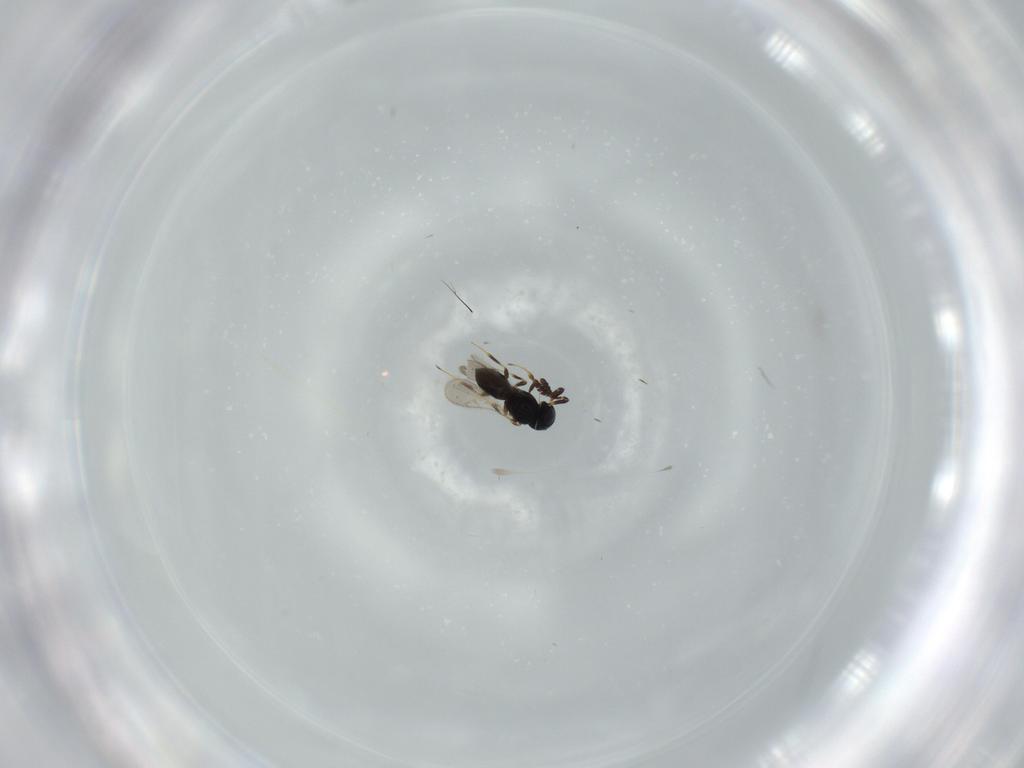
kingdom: Animalia
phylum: Arthropoda
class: Insecta
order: Hymenoptera
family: Scelionidae
